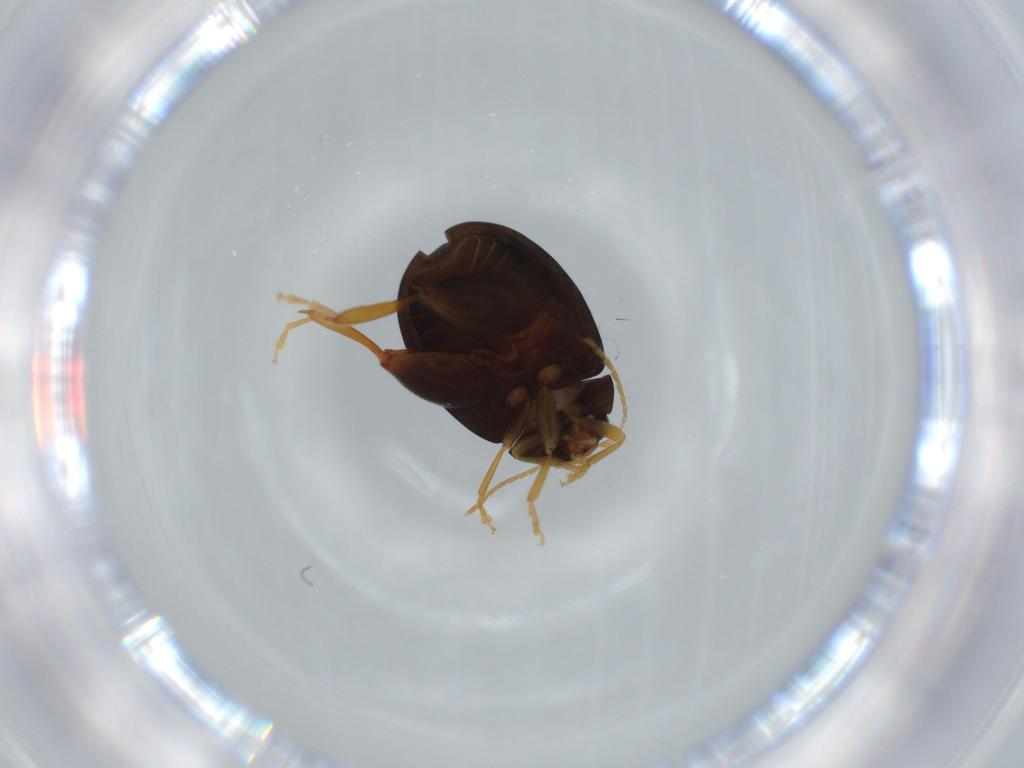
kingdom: Animalia
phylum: Arthropoda
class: Insecta
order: Coleoptera
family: Chrysomelidae
